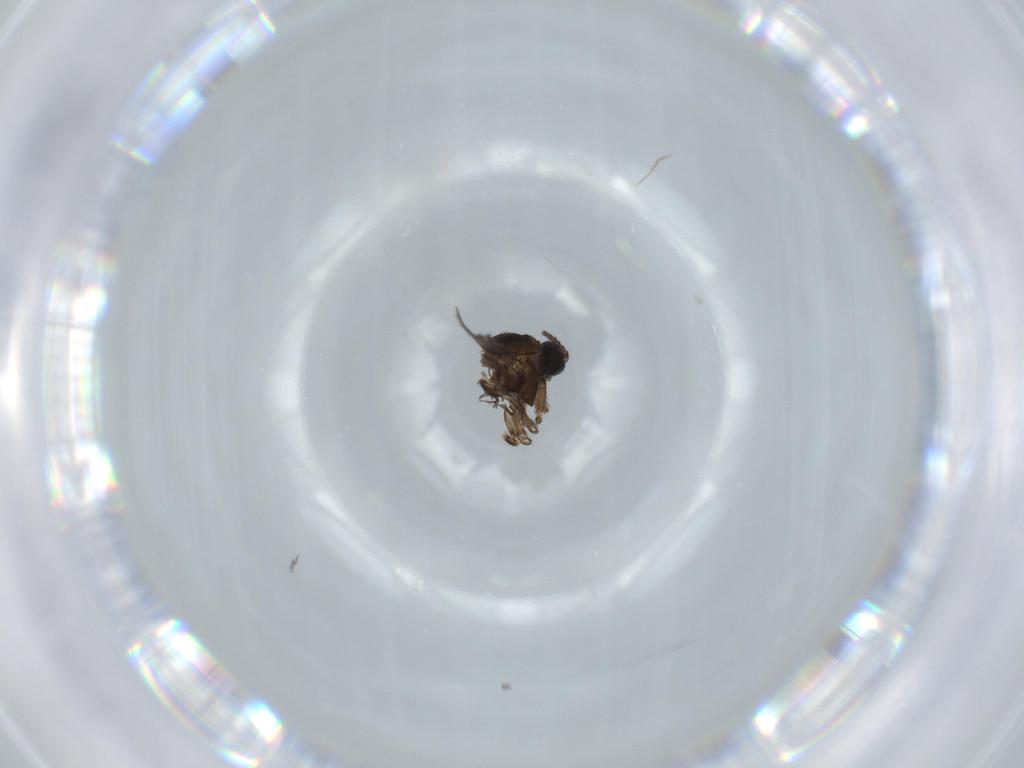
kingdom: Animalia
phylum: Arthropoda
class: Insecta
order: Diptera
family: Sciaridae
